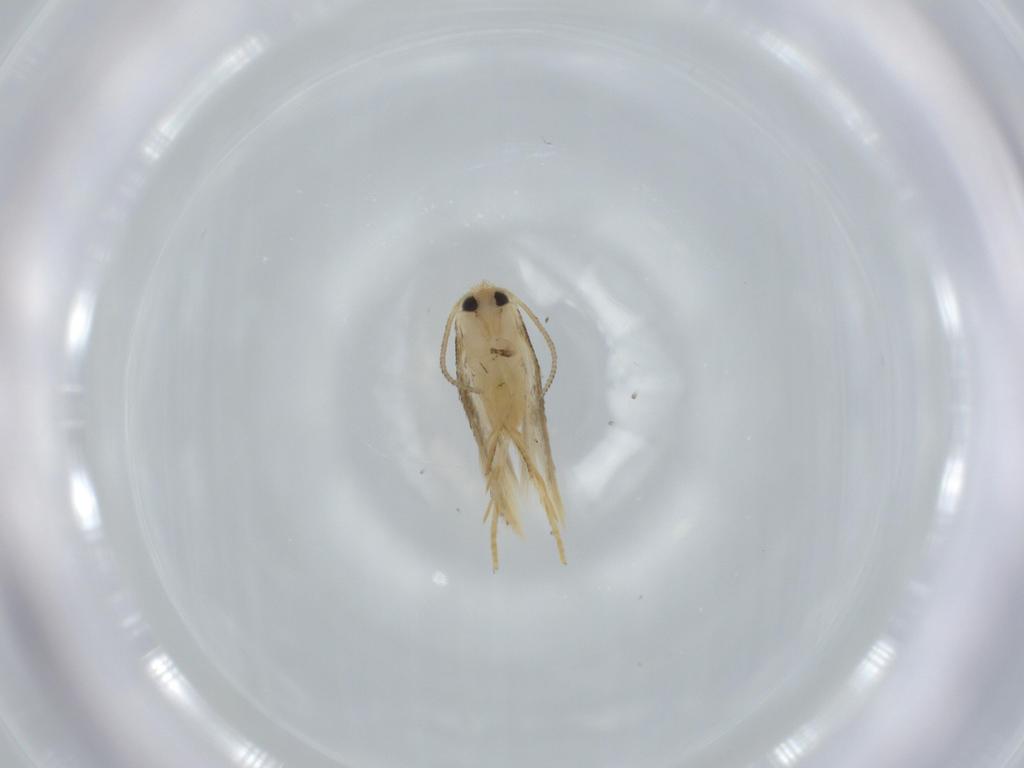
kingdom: Animalia
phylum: Arthropoda
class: Insecta
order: Lepidoptera
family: Nepticulidae
